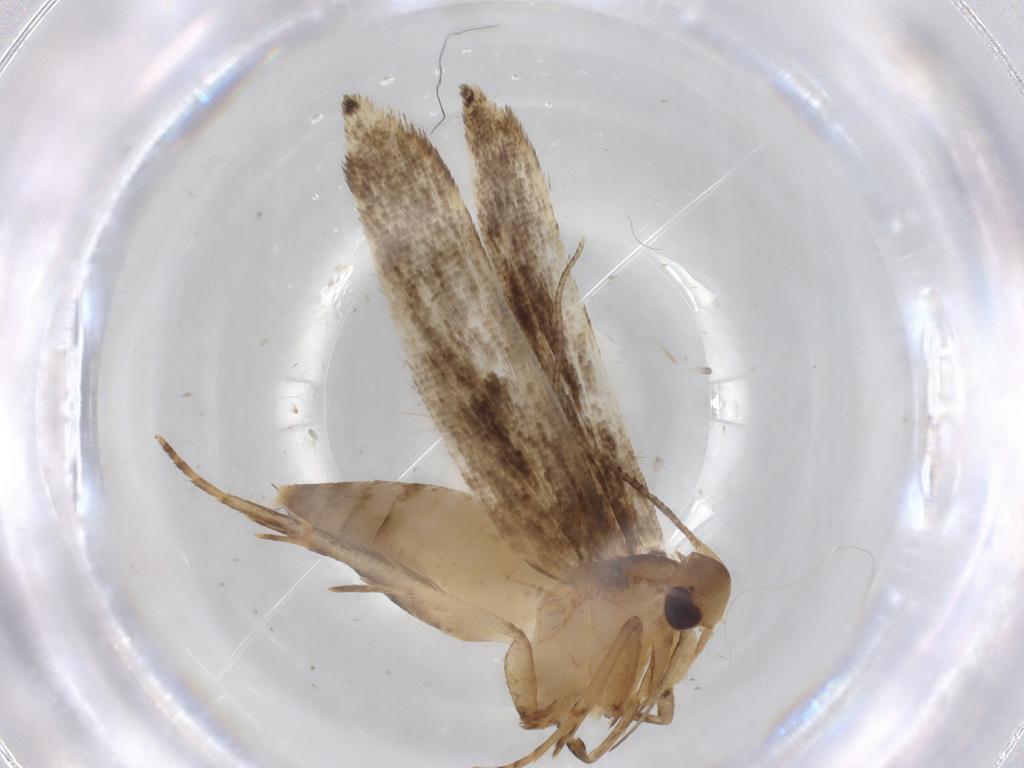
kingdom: Animalia
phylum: Arthropoda
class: Insecta
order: Lepidoptera
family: Cosmopterigidae
